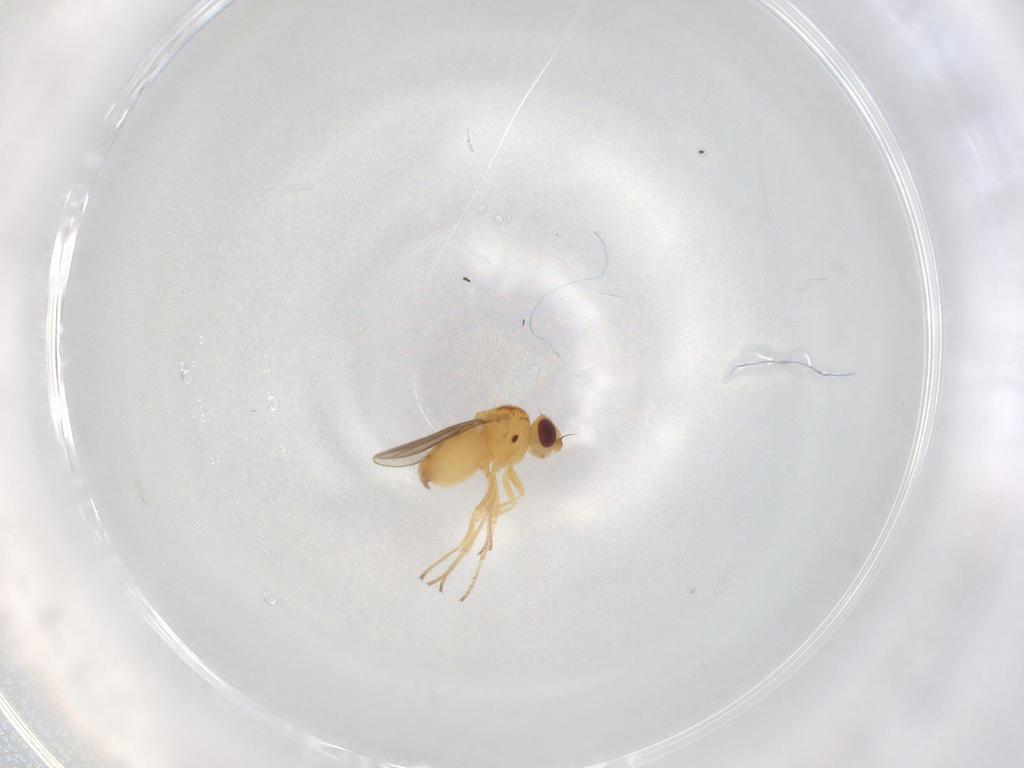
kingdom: Animalia
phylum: Arthropoda
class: Insecta
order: Diptera
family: Chloropidae
